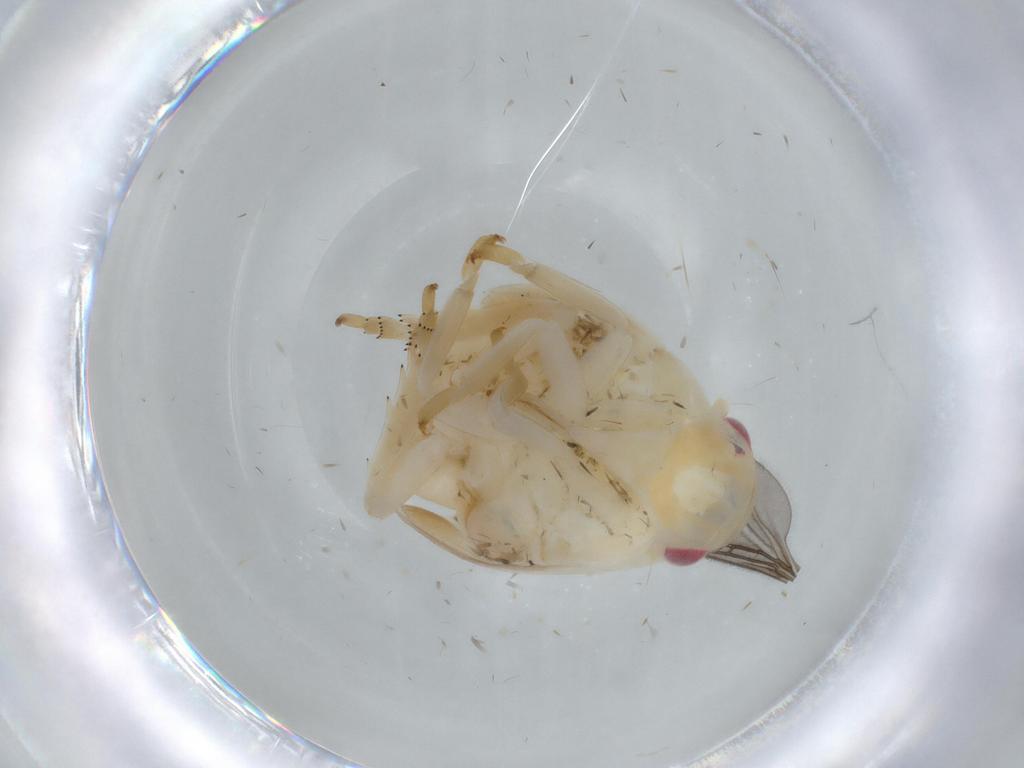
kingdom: Animalia
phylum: Arthropoda
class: Insecta
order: Hemiptera
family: Flatidae
